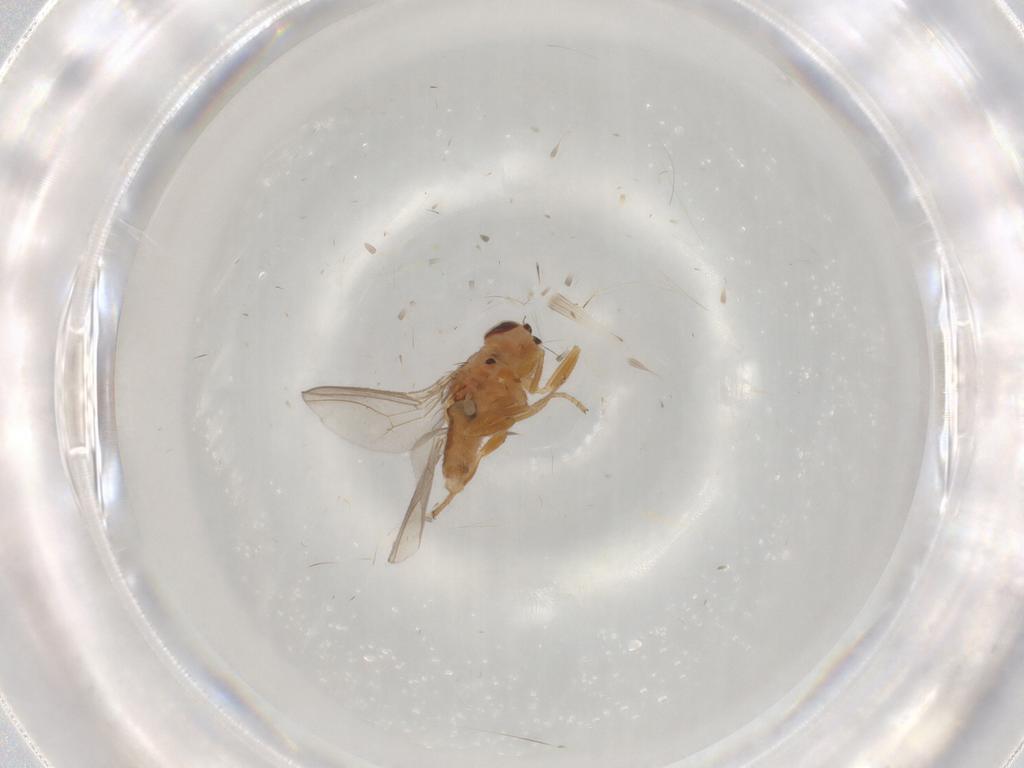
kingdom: Animalia
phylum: Arthropoda
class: Insecta
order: Diptera
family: Chloropidae
